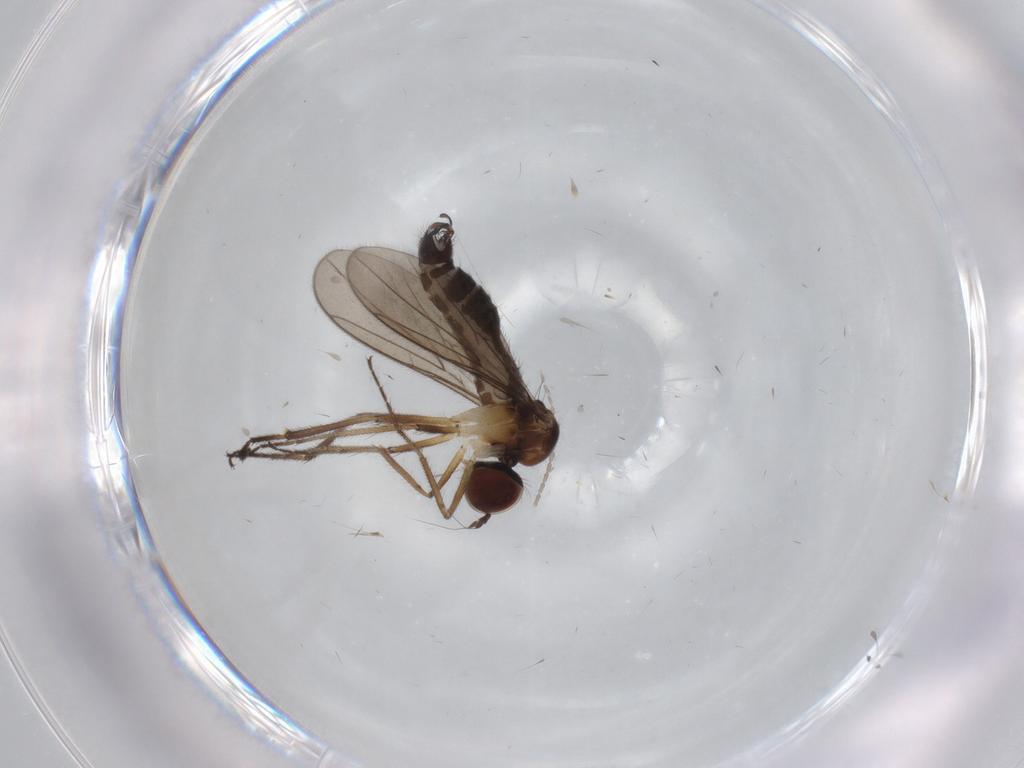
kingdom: Animalia
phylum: Arthropoda
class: Insecta
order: Diptera
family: Hybotidae
